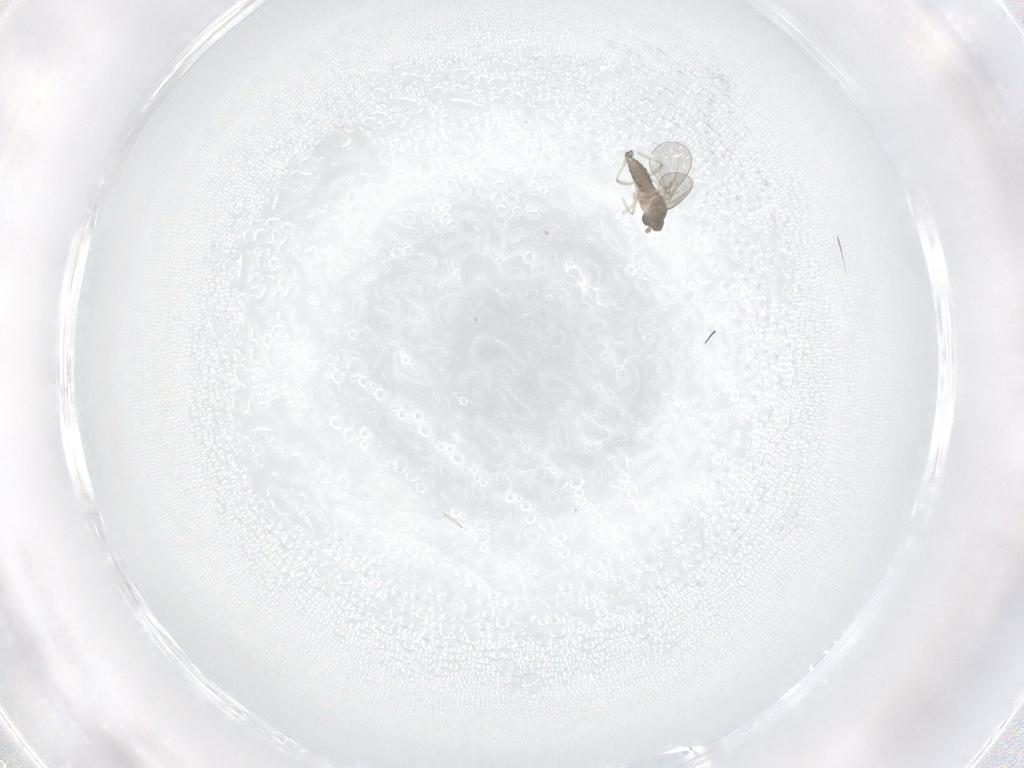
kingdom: Animalia
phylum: Arthropoda
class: Insecta
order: Diptera
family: Cecidomyiidae
